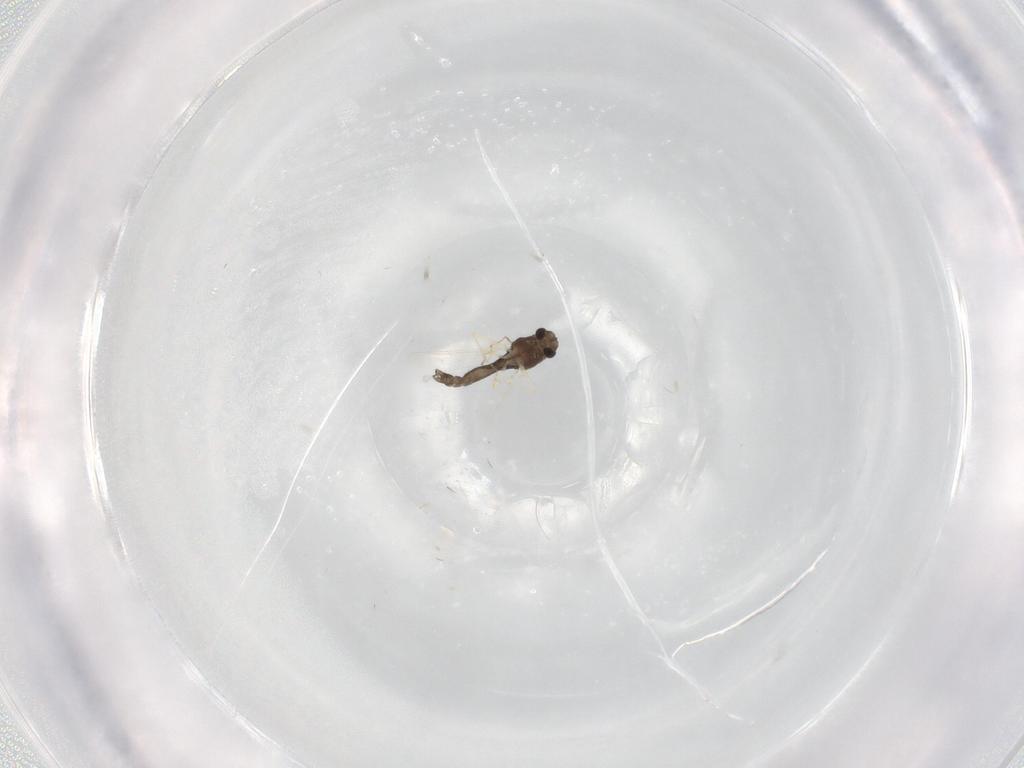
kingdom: Animalia
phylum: Arthropoda
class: Insecta
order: Diptera
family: Chironomidae
